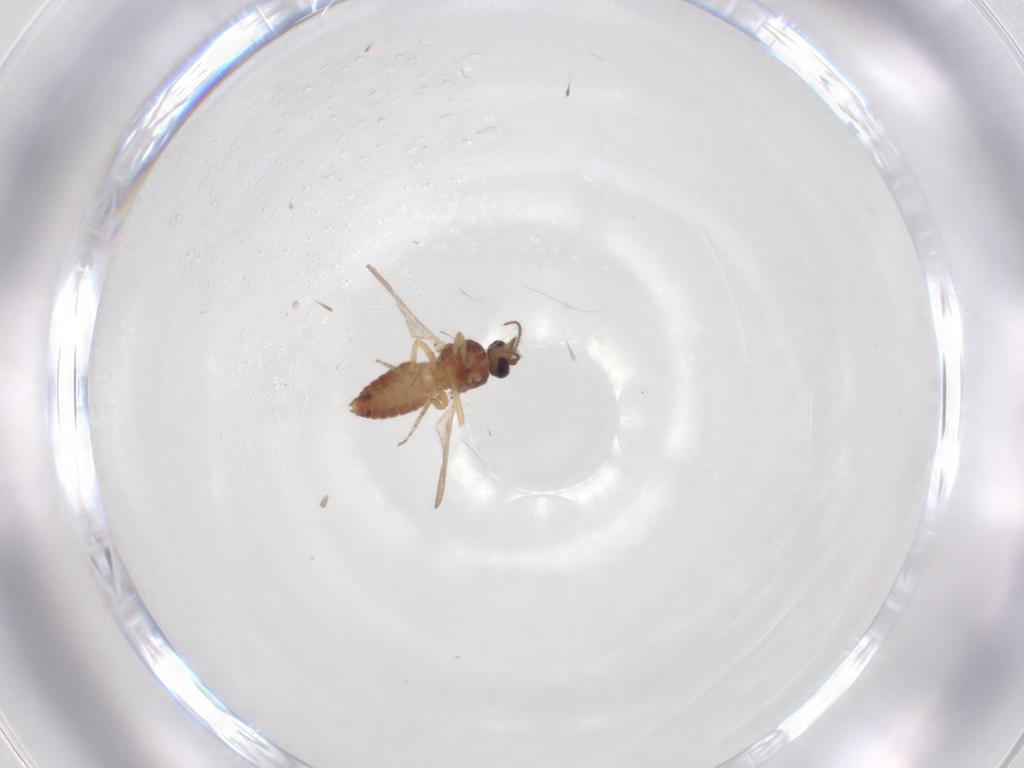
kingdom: Animalia
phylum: Arthropoda
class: Insecta
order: Diptera
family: Ceratopogonidae
